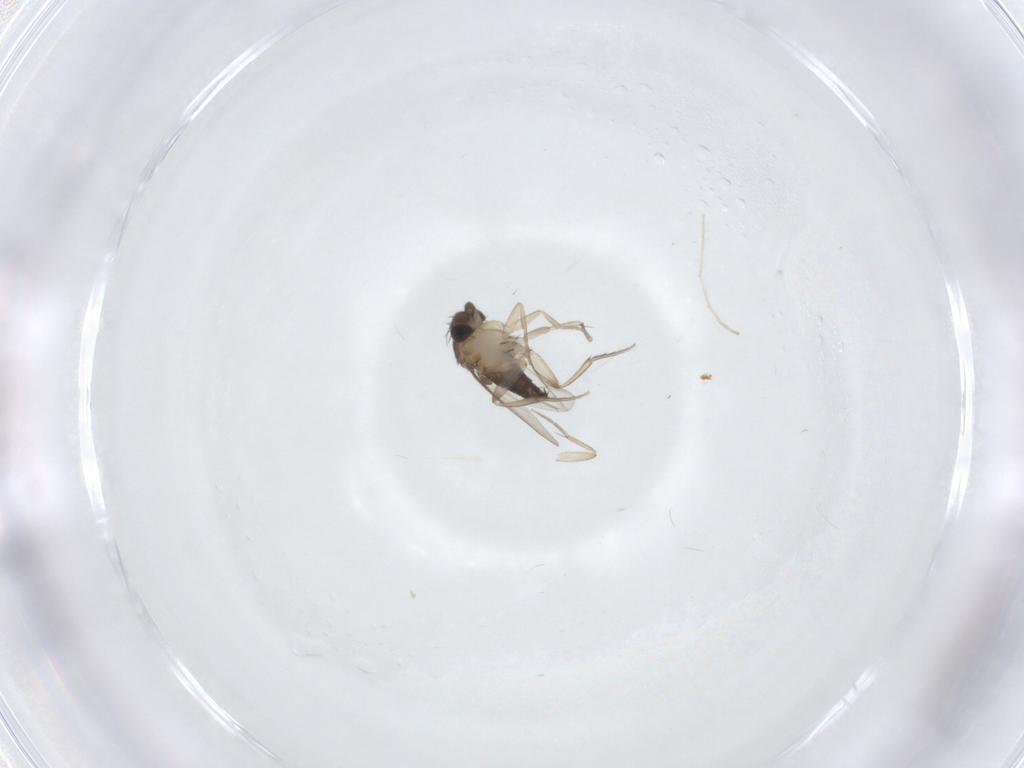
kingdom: Animalia
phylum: Arthropoda
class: Insecta
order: Diptera
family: Phoridae
